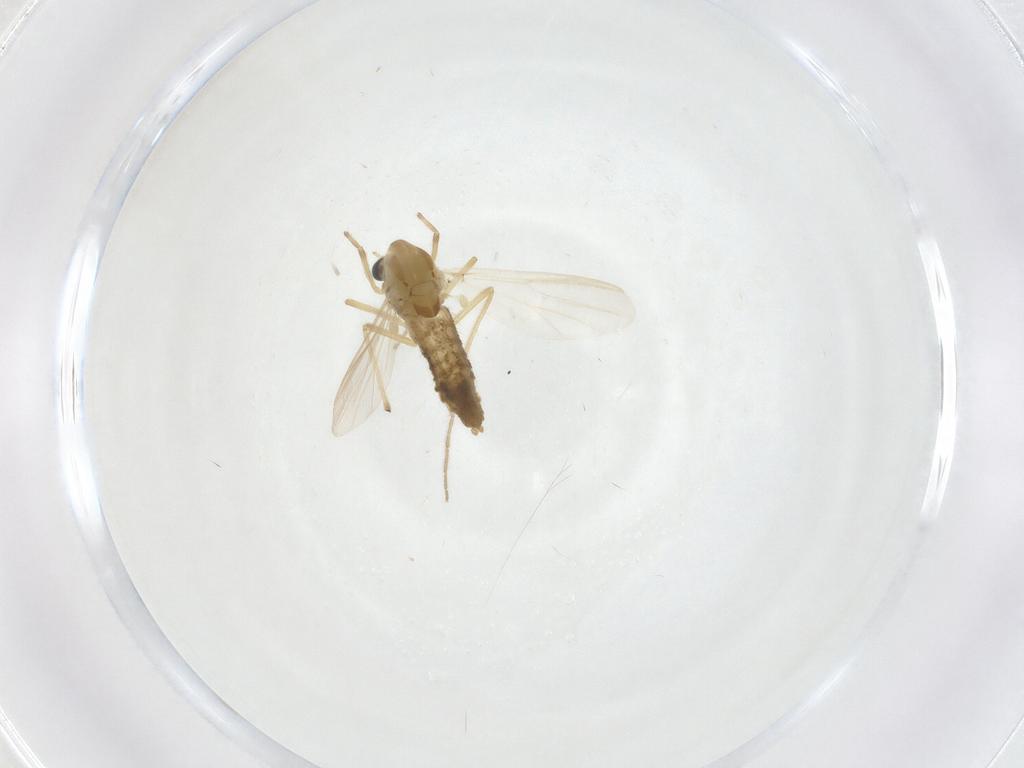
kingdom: Animalia
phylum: Arthropoda
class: Insecta
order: Diptera
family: Chironomidae
